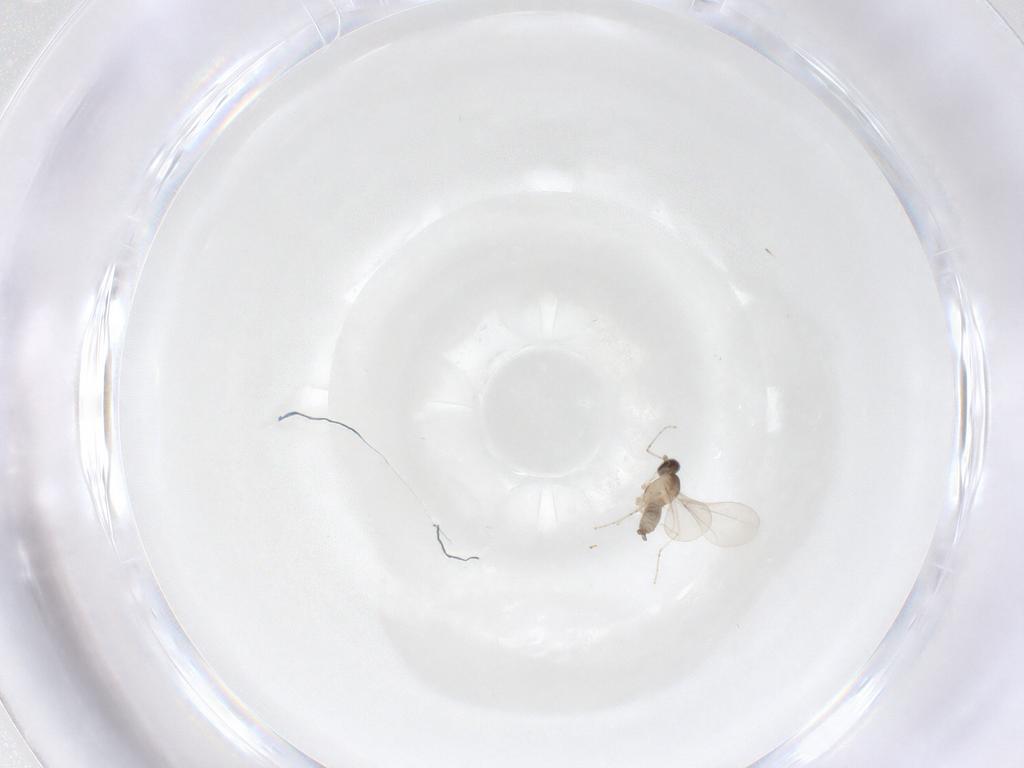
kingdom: Animalia
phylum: Arthropoda
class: Insecta
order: Diptera
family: Cecidomyiidae
